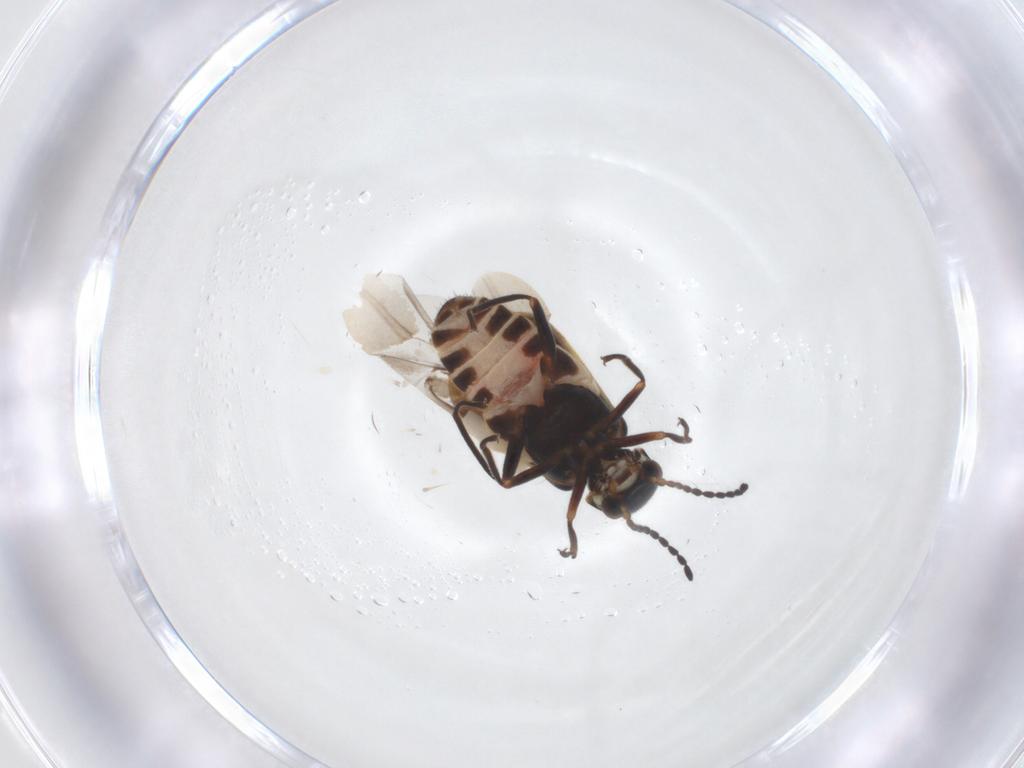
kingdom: Animalia
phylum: Arthropoda
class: Insecta
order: Coleoptera
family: Melyridae
